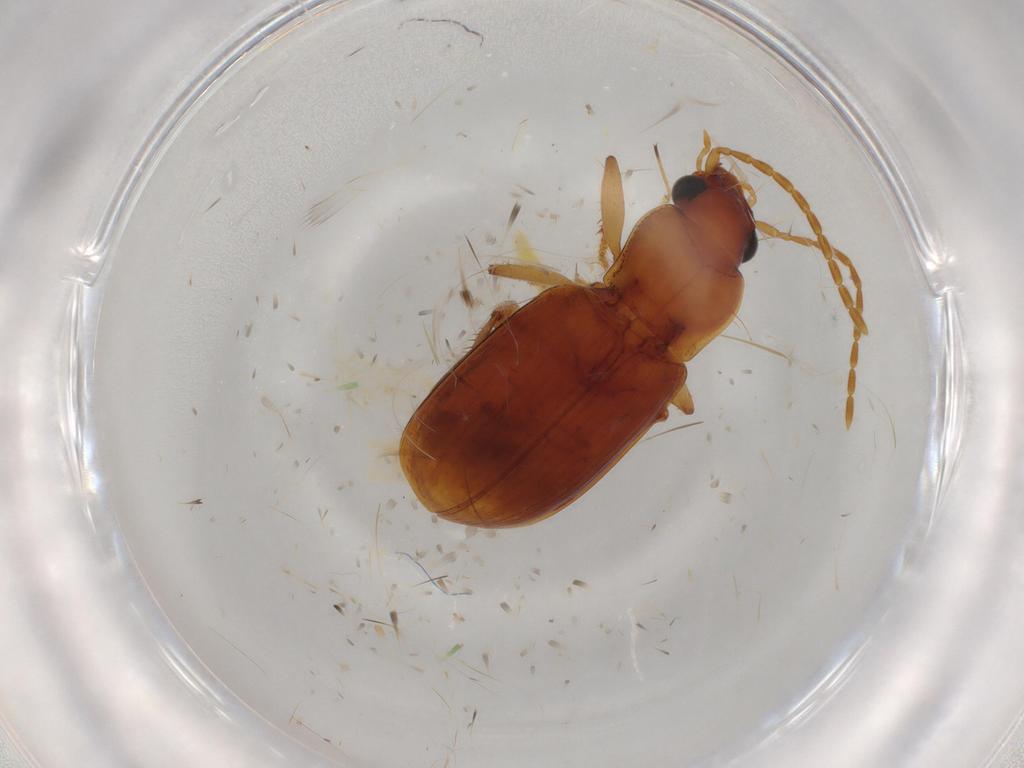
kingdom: Animalia
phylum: Arthropoda
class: Insecta
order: Coleoptera
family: Carabidae
